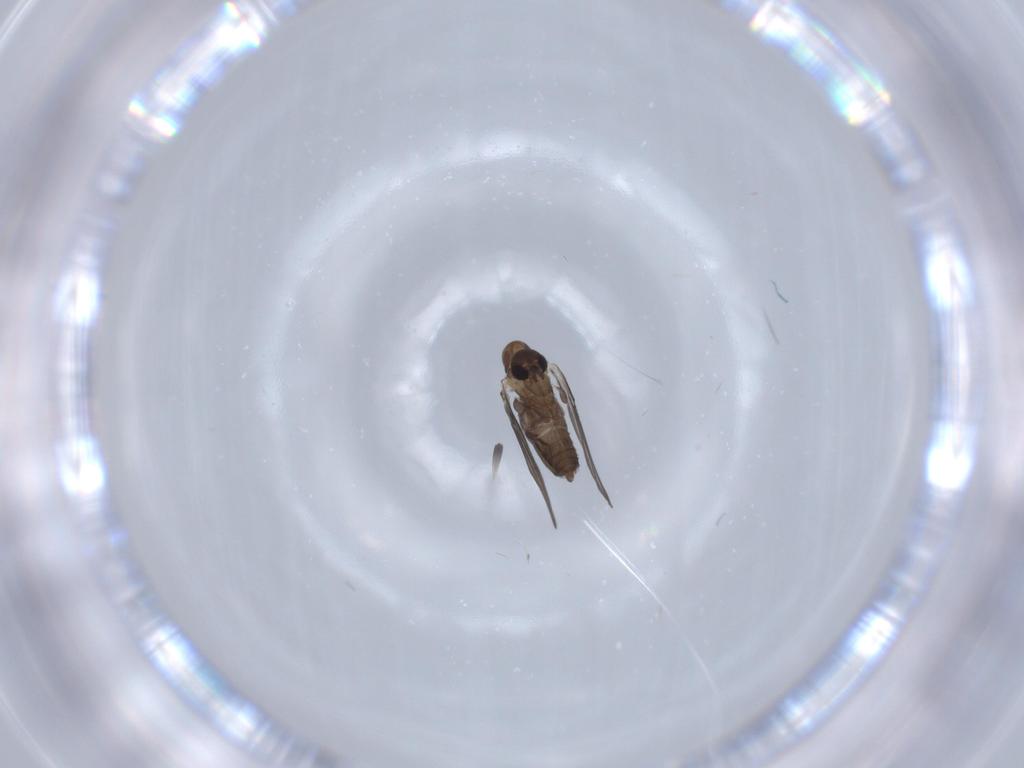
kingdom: Animalia
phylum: Arthropoda
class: Insecta
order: Diptera
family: Psychodidae
